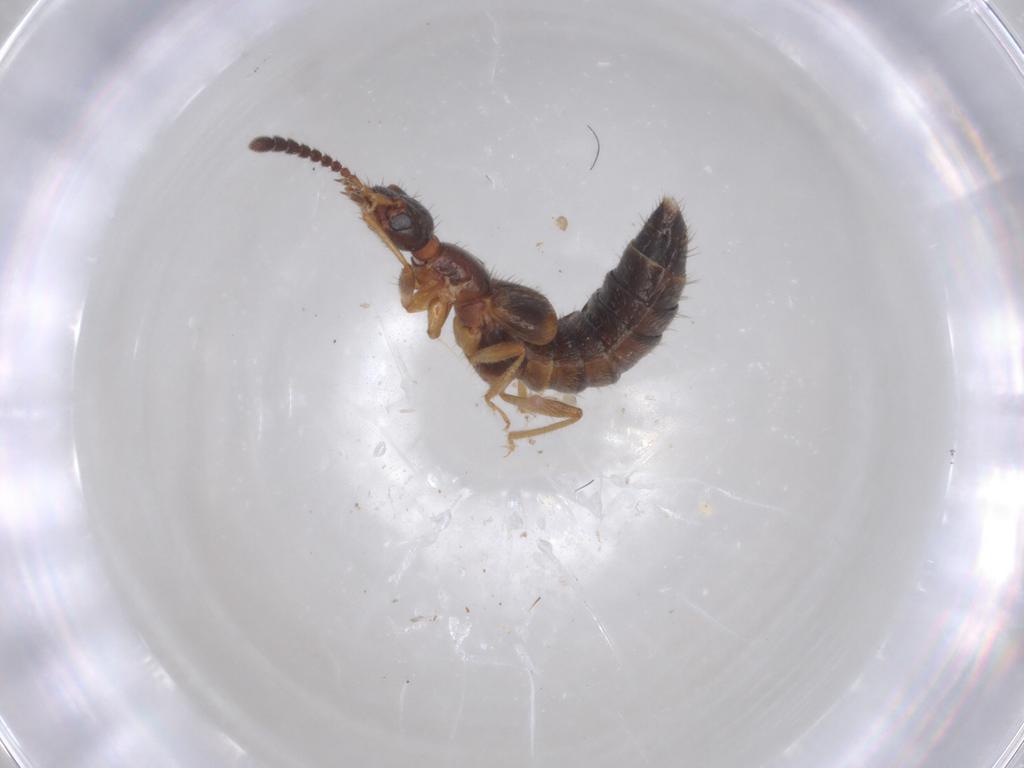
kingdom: Animalia
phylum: Arthropoda
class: Insecta
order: Coleoptera
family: Staphylinidae
